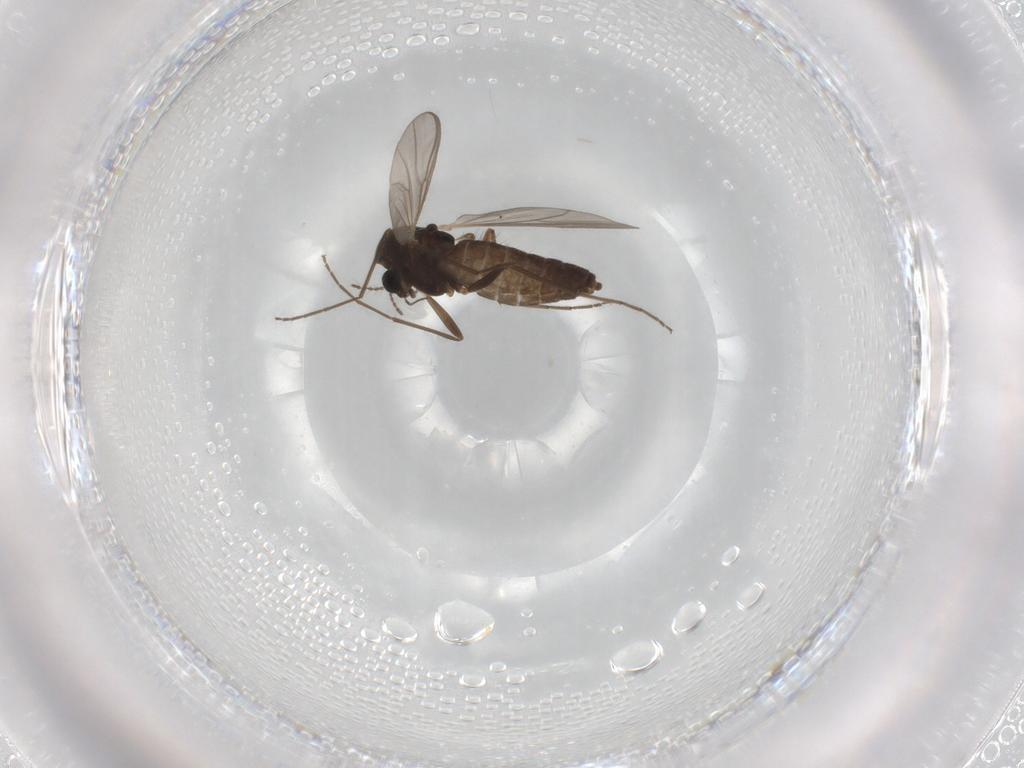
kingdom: Animalia
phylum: Arthropoda
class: Insecta
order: Diptera
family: Chironomidae
